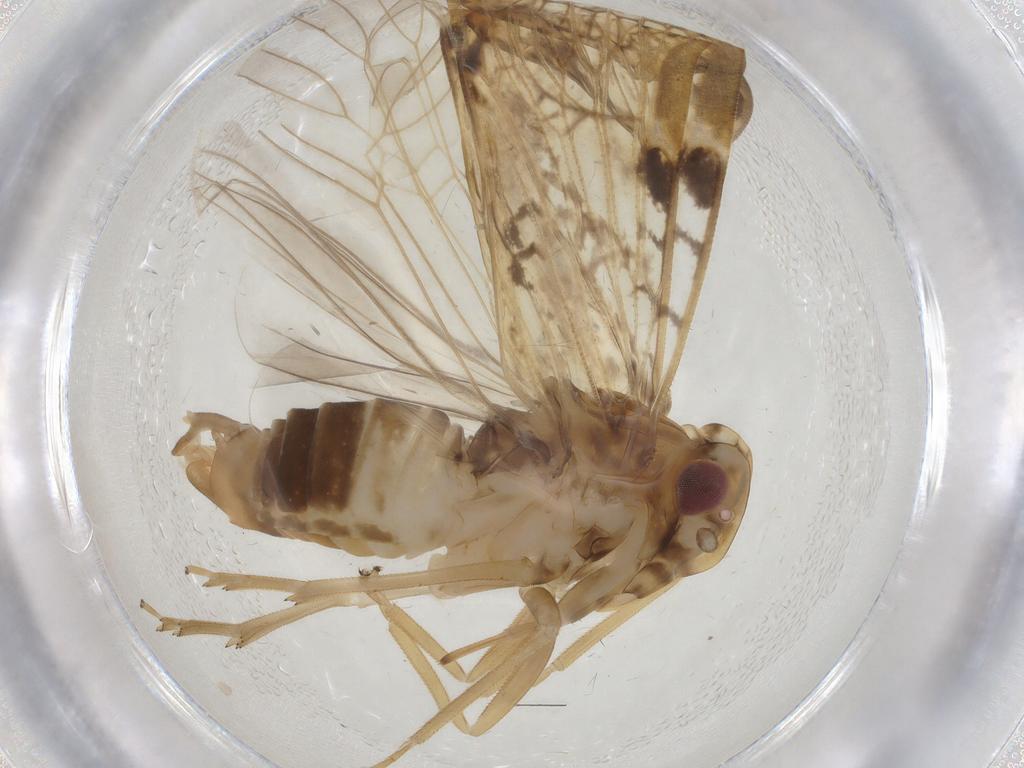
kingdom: Animalia
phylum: Arthropoda
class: Insecta
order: Hemiptera
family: Cixiidae
